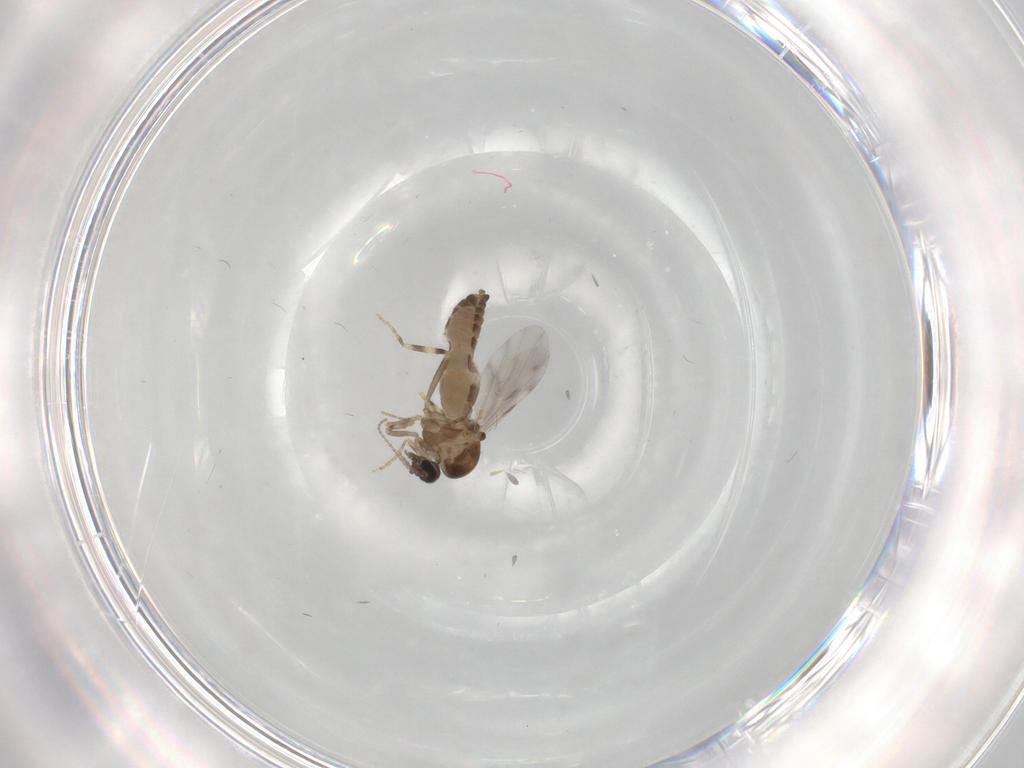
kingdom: Animalia
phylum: Arthropoda
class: Insecta
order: Diptera
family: Ceratopogonidae
